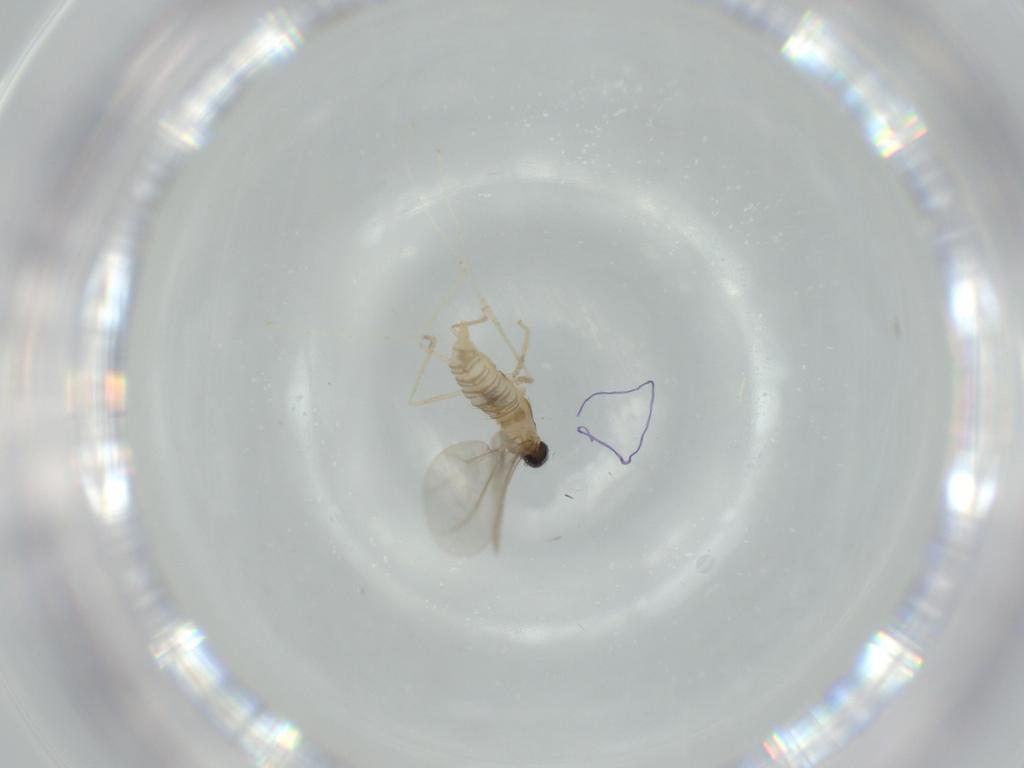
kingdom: Animalia
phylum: Arthropoda
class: Insecta
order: Diptera
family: Cecidomyiidae
